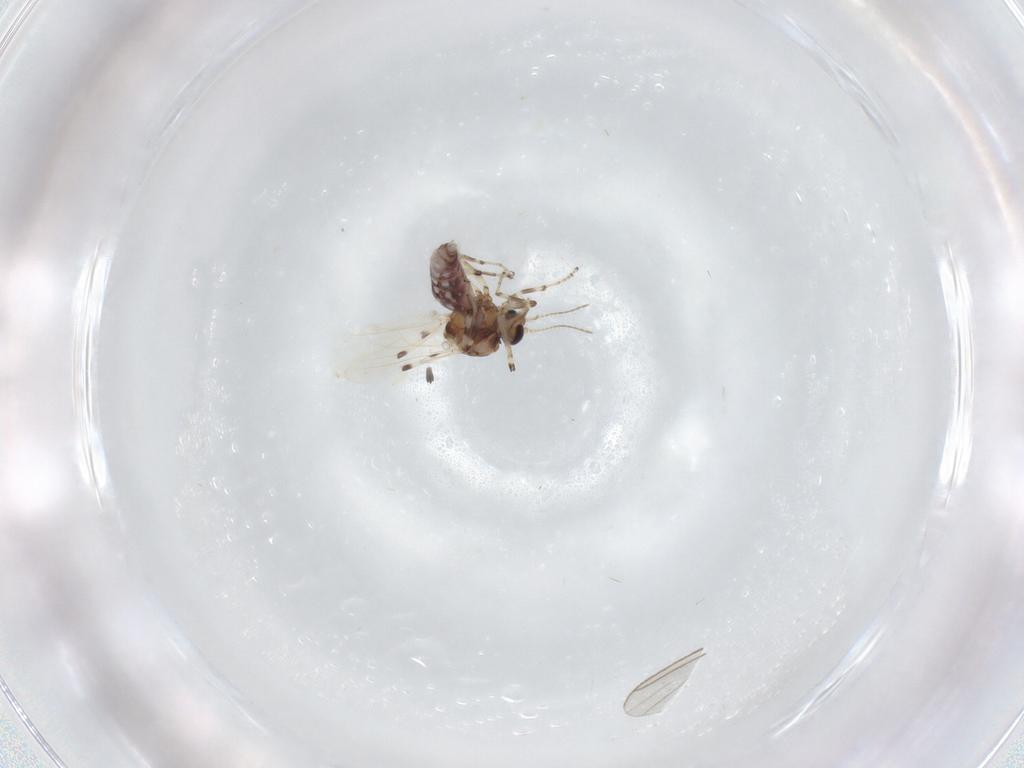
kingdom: Animalia
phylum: Arthropoda
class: Insecta
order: Diptera
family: Ceratopogonidae
